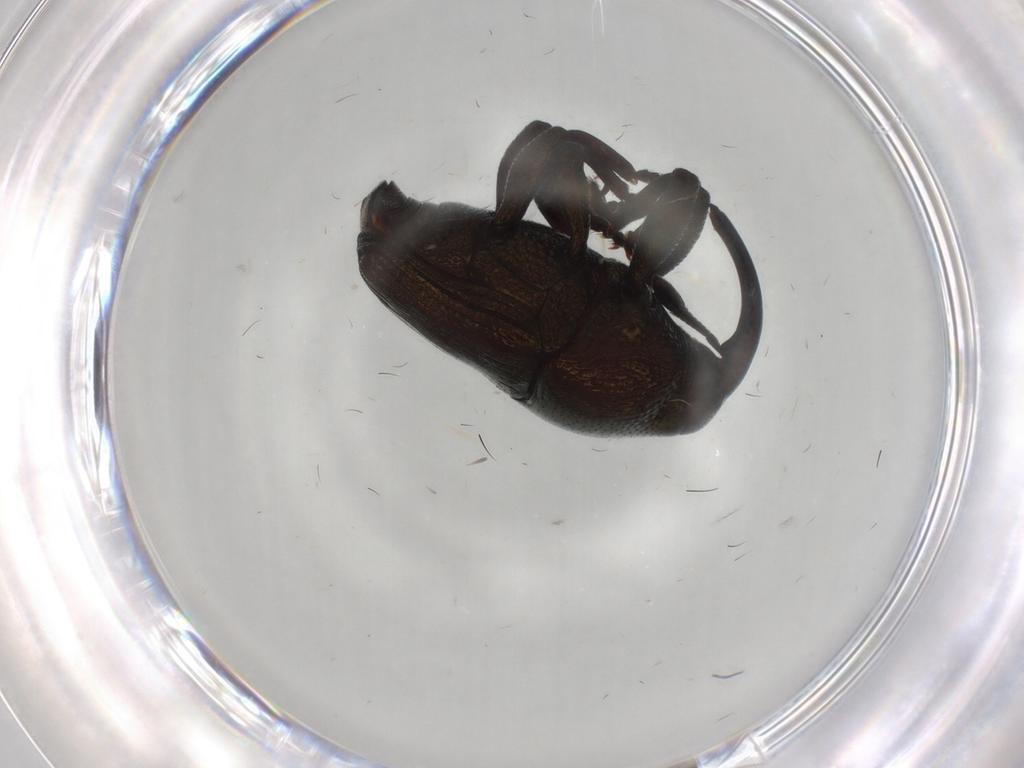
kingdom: Animalia
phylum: Arthropoda
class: Insecta
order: Coleoptera
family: Curculionidae
